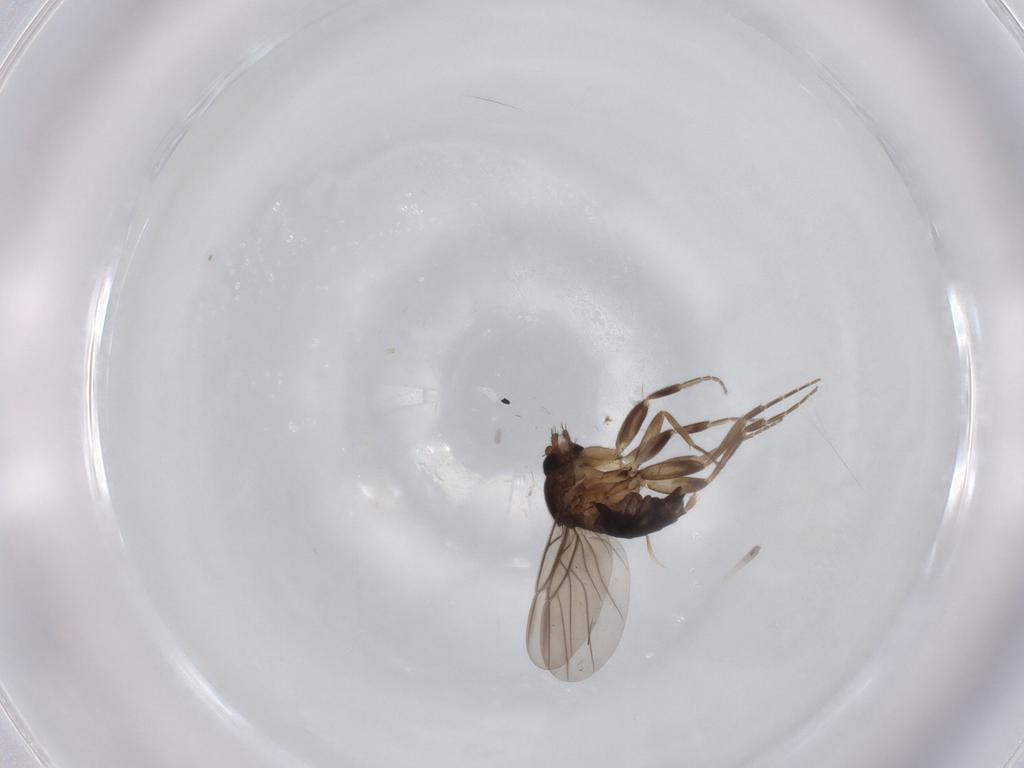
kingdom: Animalia
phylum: Arthropoda
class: Insecta
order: Diptera
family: Phoridae
